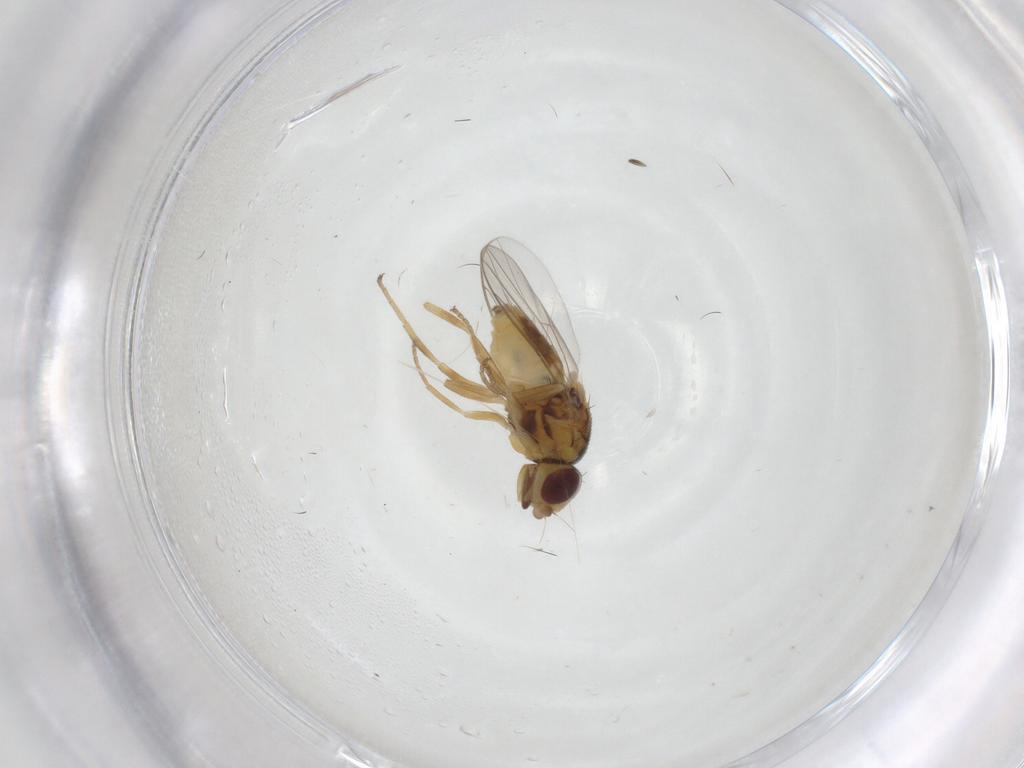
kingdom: Animalia
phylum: Arthropoda
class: Insecta
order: Diptera
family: Chloropidae
